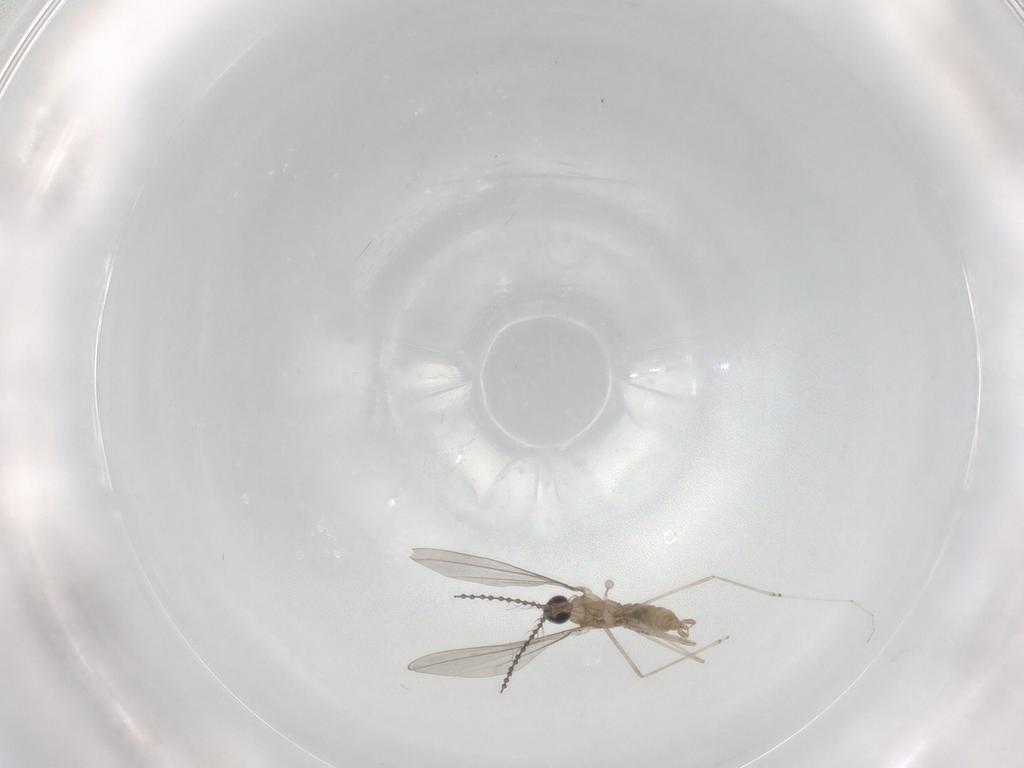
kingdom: Animalia
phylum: Arthropoda
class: Insecta
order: Diptera
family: Cecidomyiidae
